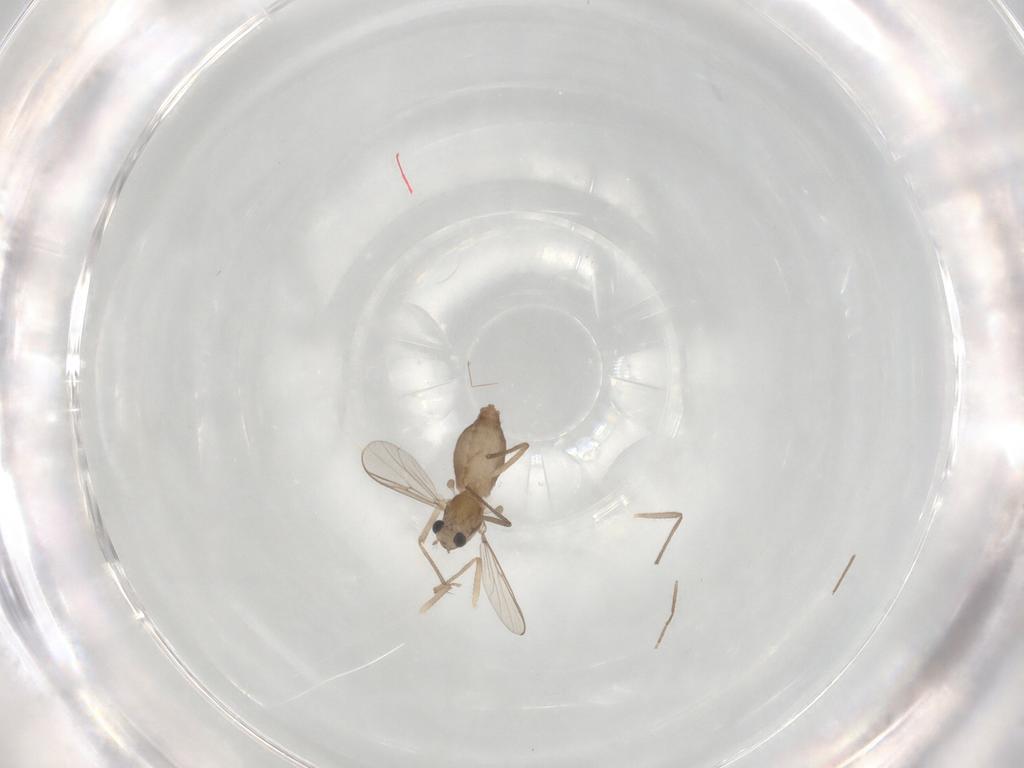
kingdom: Animalia
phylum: Arthropoda
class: Insecta
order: Diptera
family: Chironomidae
